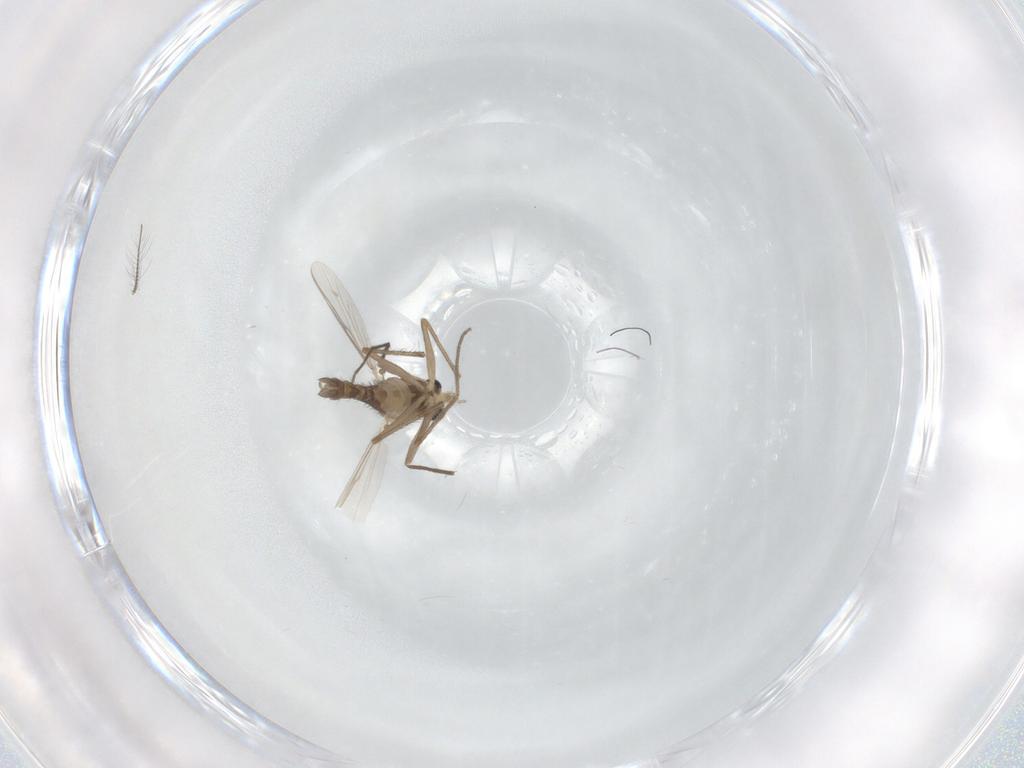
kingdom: Animalia
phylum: Arthropoda
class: Insecta
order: Diptera
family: Chironomidae
